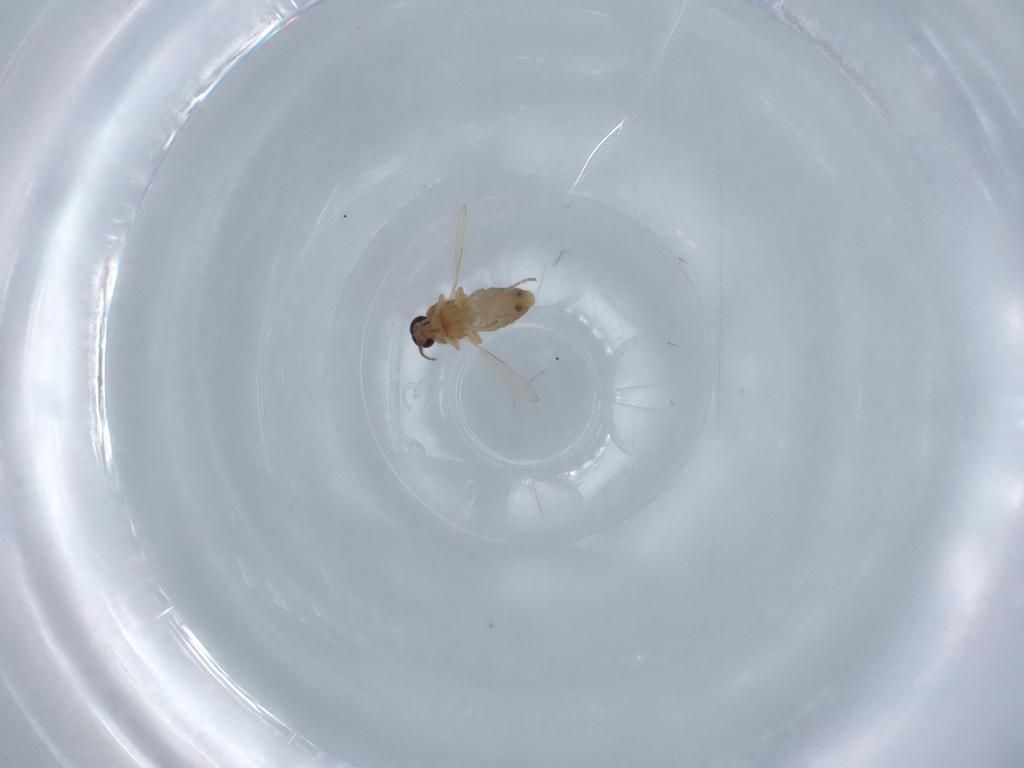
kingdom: Animalia
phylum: Arthropoda
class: Insecta
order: Diptera
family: Ceratopogonidae
